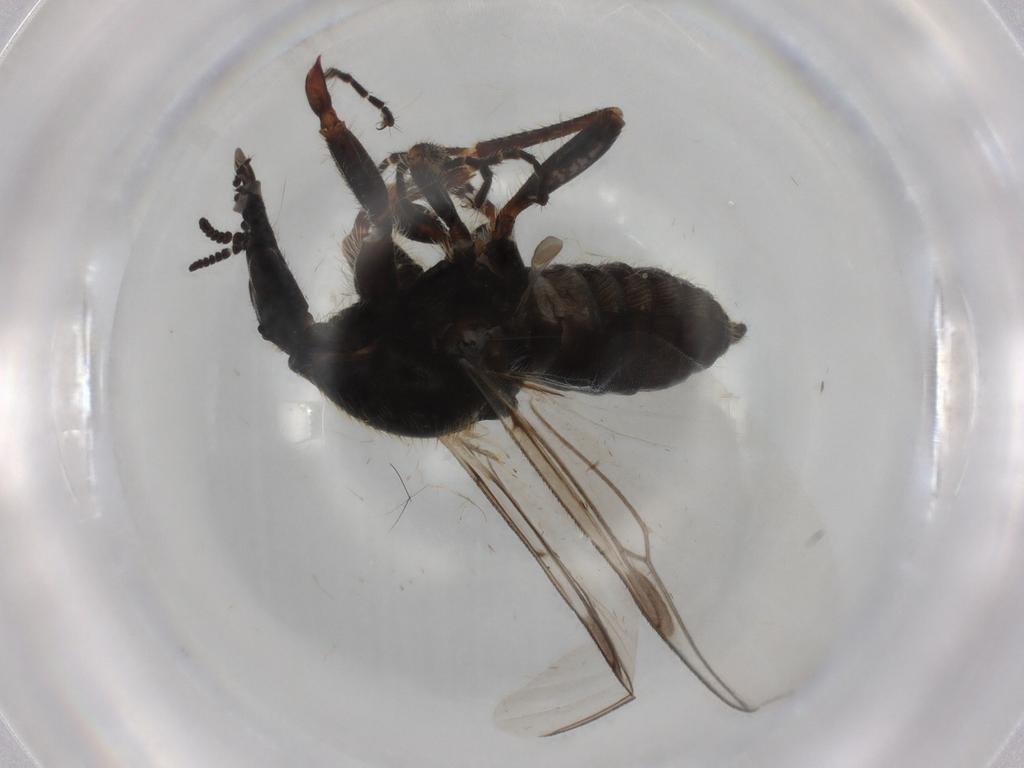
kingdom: Animalia
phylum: Arthropoda
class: Insecta
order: Diptera
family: Bibionidae
